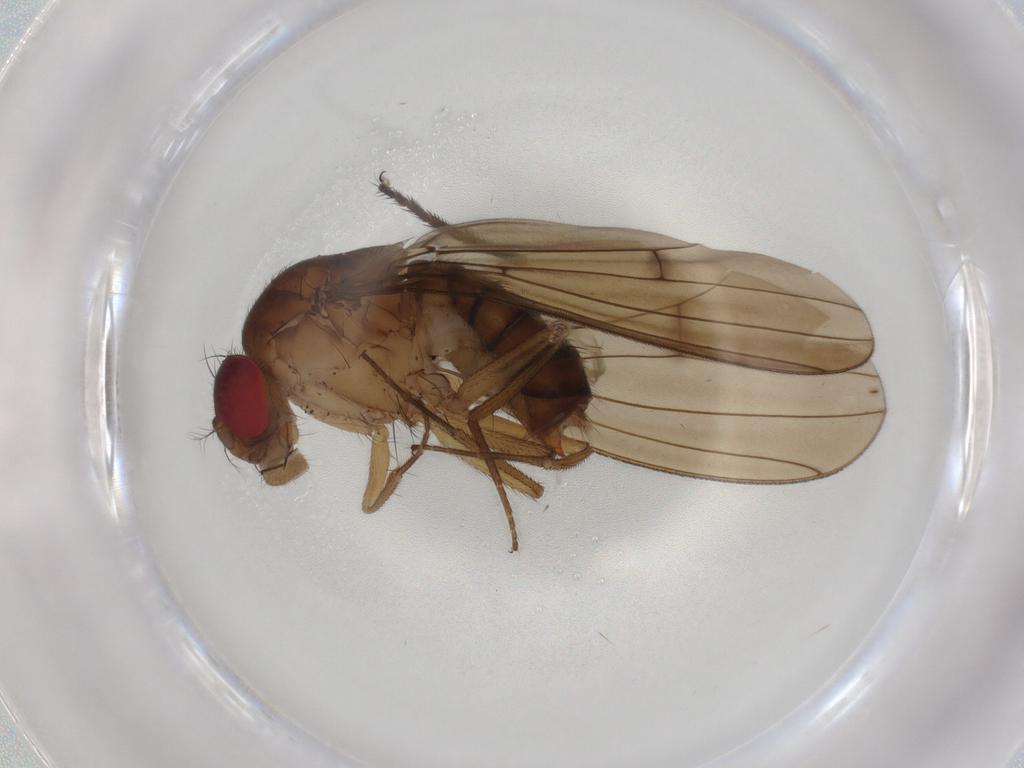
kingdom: Animalia
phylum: Arthropoda
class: Insecta
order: Diptera
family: Drosophilidae
